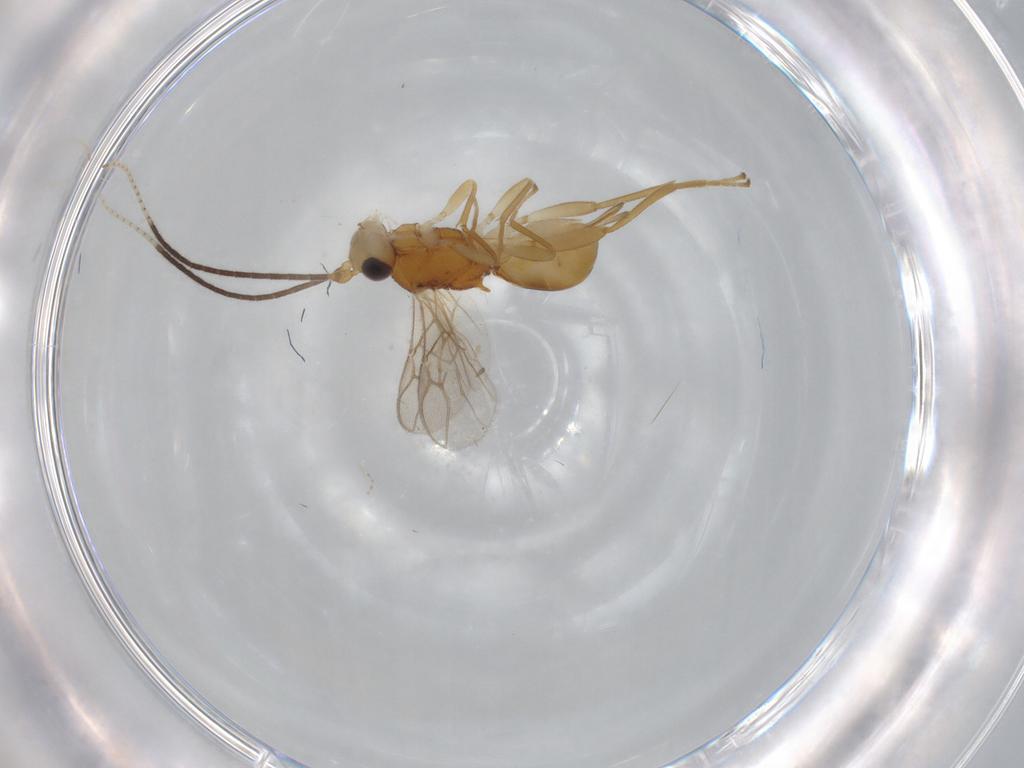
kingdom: Animalia
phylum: Arthropoda
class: Insecta
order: Hymenoptera
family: Braconidae
